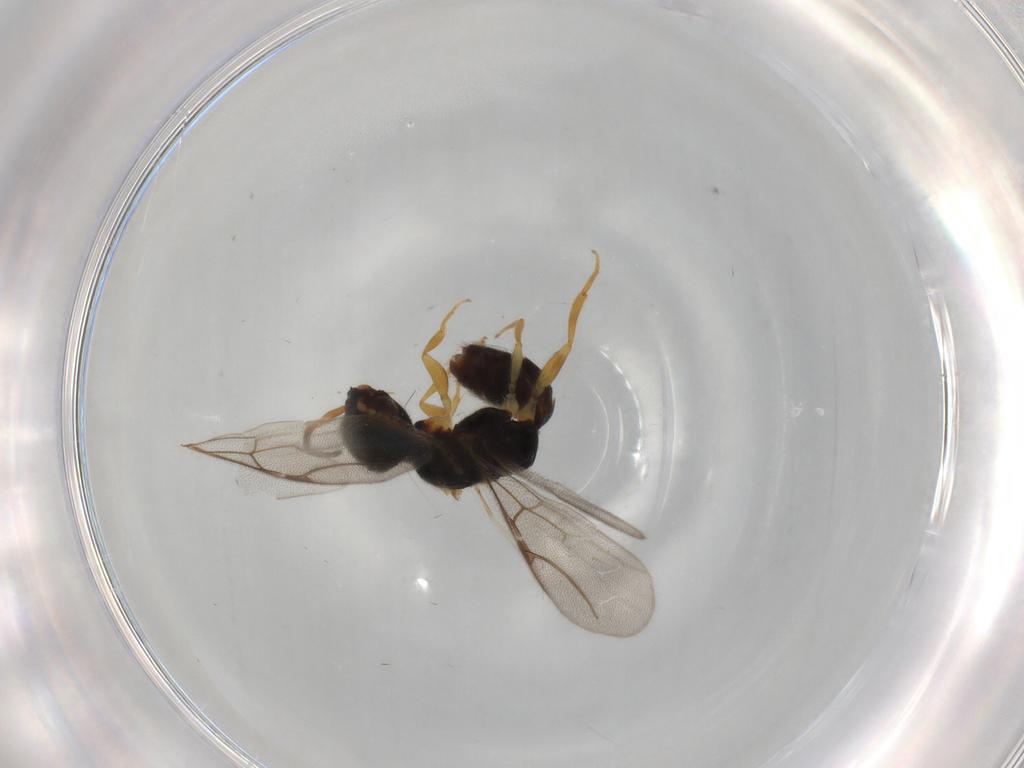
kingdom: Animalia
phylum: Arthropoda
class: Insecta
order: Hymenoptera
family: Bethylidae
